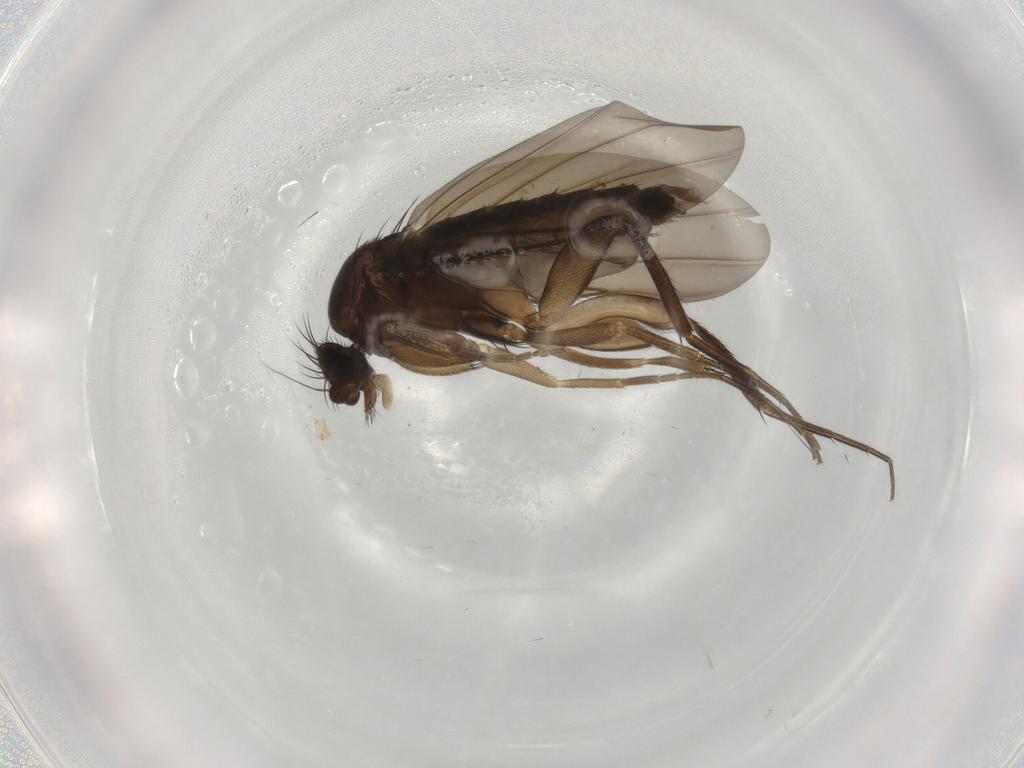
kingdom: Animalia
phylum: Arthropoda
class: Insecta
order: Diptera
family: Phoridae
